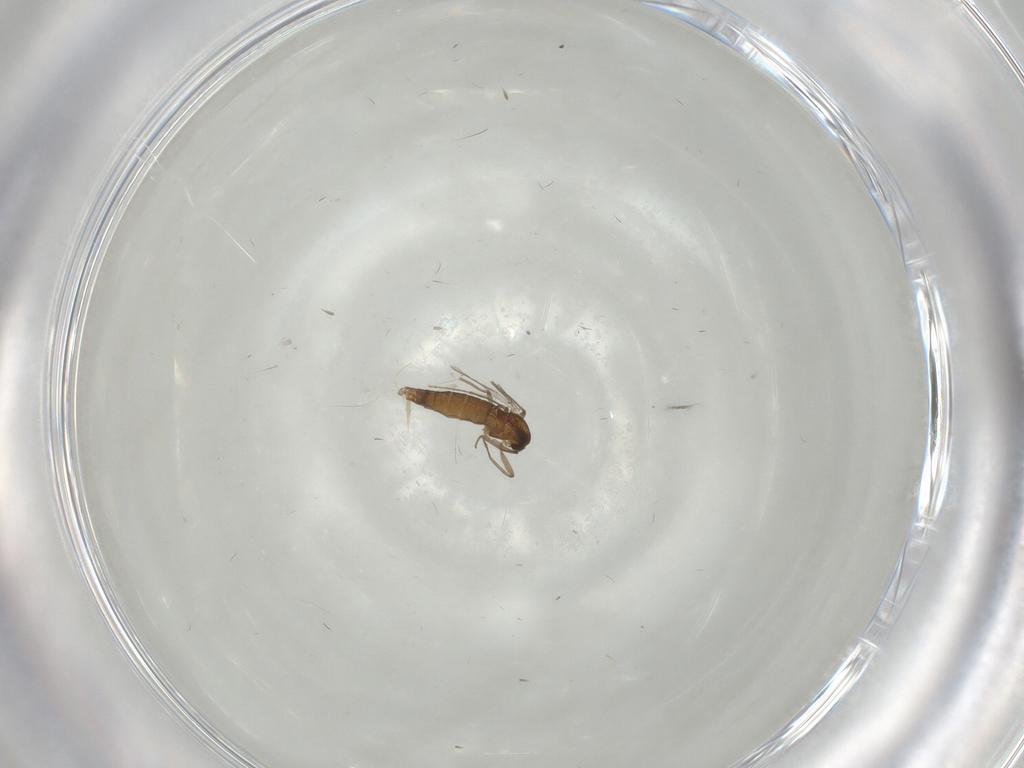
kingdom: Animalia
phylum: Arthropoda
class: Insecta
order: Diptera
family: Chironomidae
